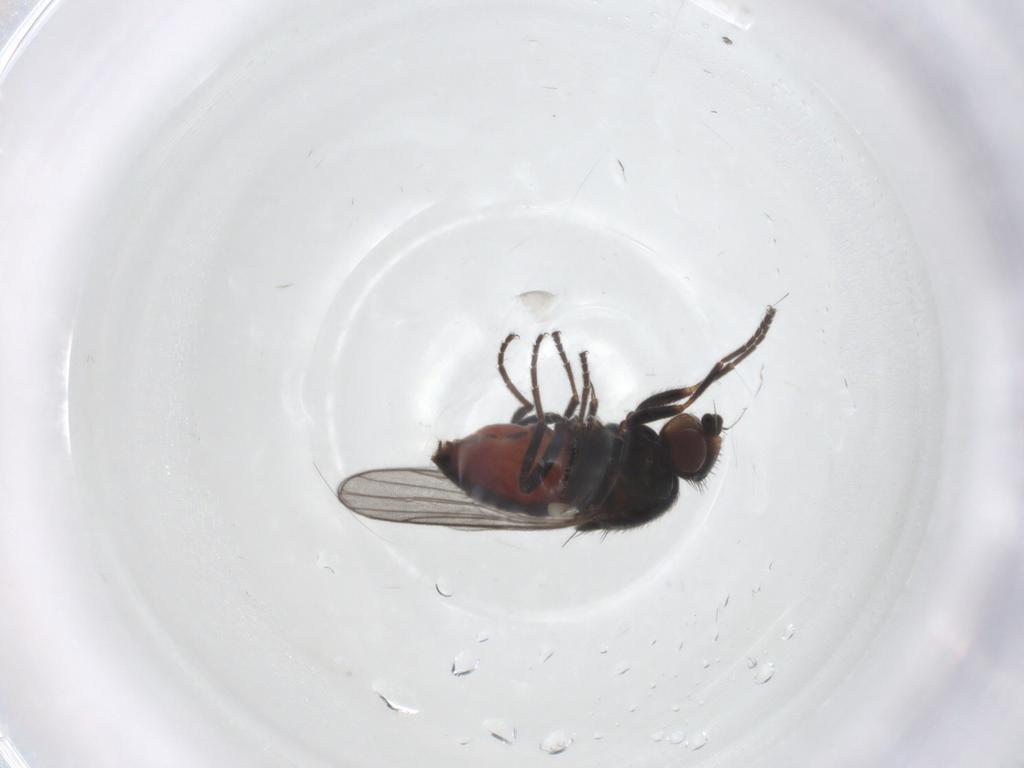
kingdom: Animalia
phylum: Arthropoda
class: Insecta
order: Diptera
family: Chloropidae
